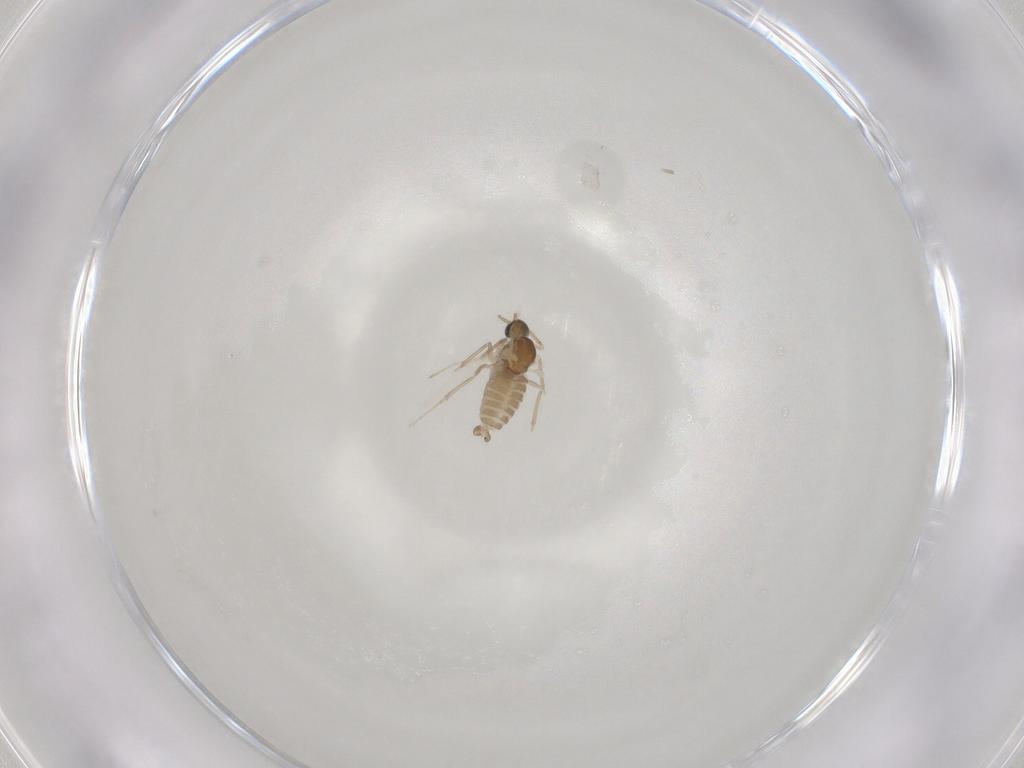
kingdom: Animalia
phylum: Arthropoda
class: Insecta
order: Diptera
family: Cecidomyiidae
